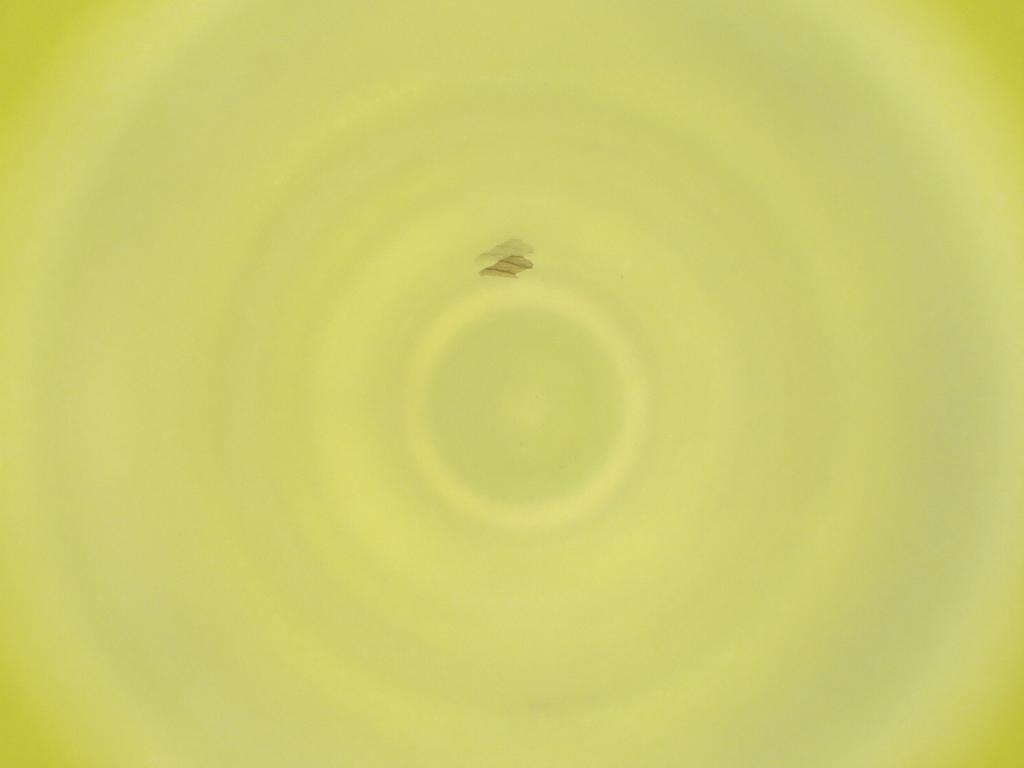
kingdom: Animalia
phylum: Arthropoda
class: Insecta
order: Diptera
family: Cecidomyiidae
